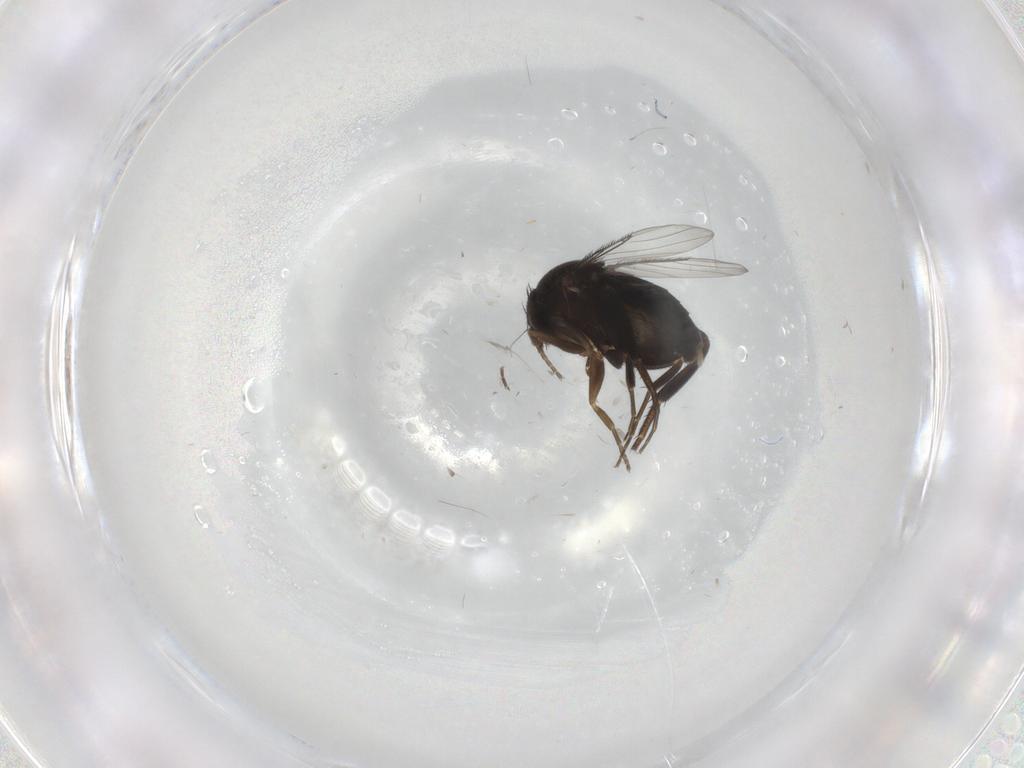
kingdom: Animalia
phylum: Arthropoda
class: Insecta
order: Diptera
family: Phoridae
